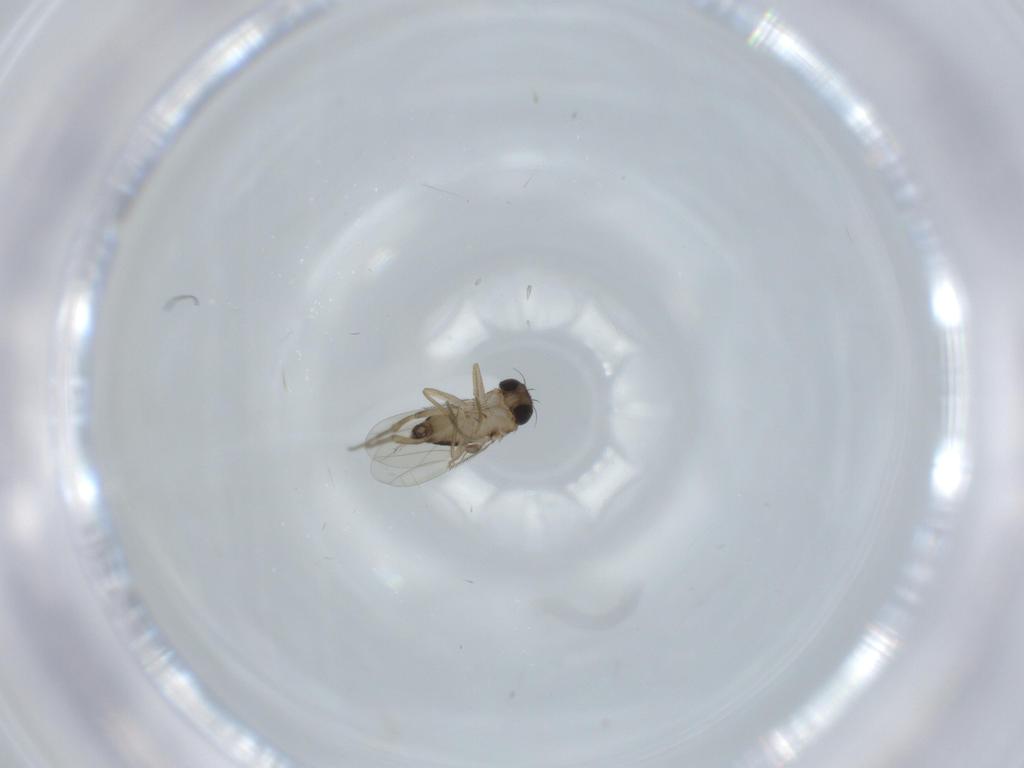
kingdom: Animalia
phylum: Arthropoda
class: Insecta
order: Diptera
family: Phoridae
